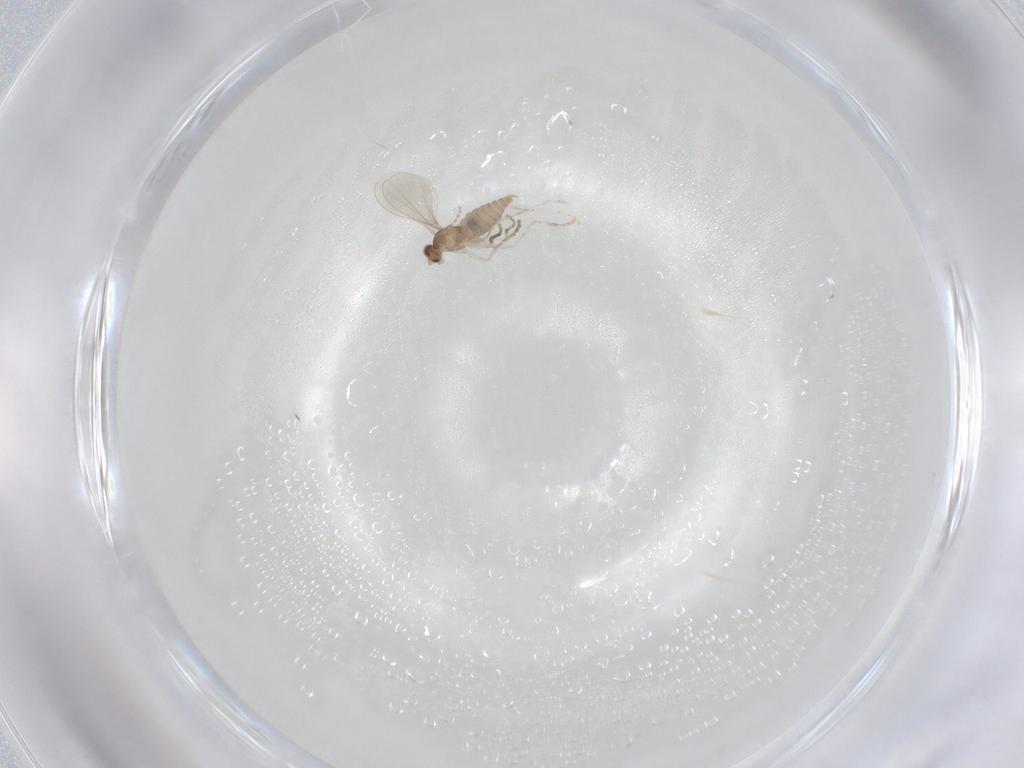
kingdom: Animalia
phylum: Arthropoda
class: Insecta
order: Diptera
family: Cecidomyiidae
